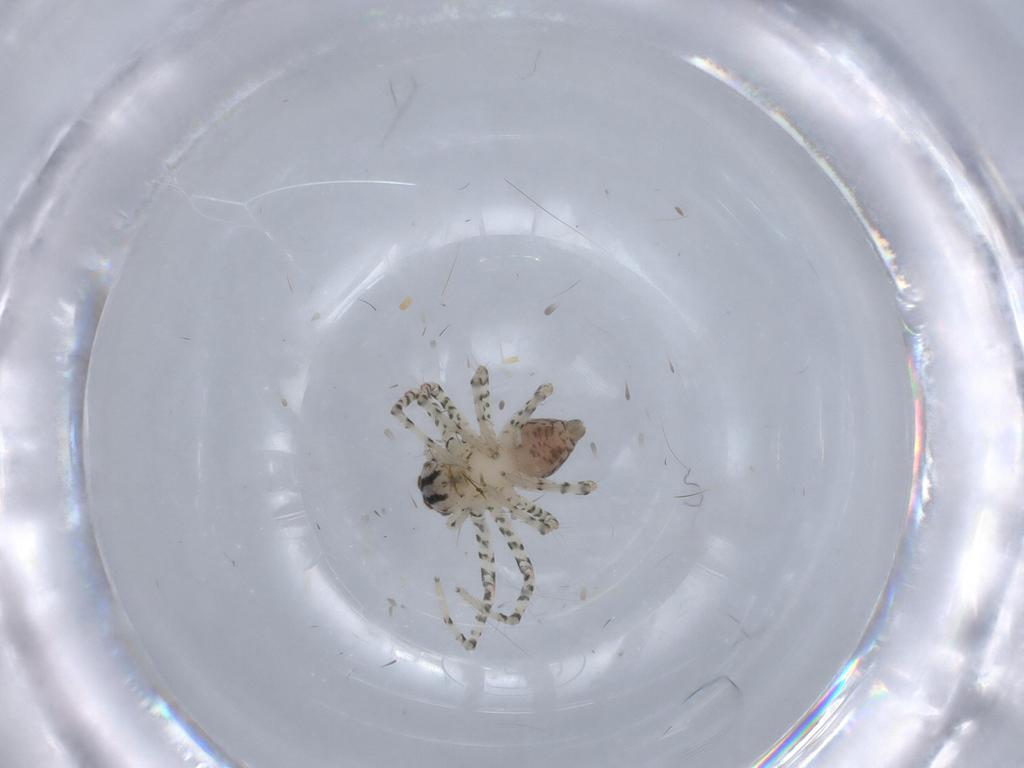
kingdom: Animalia
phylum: Arthropoda
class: Arachnida
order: Araneae
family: Oxyopidae
